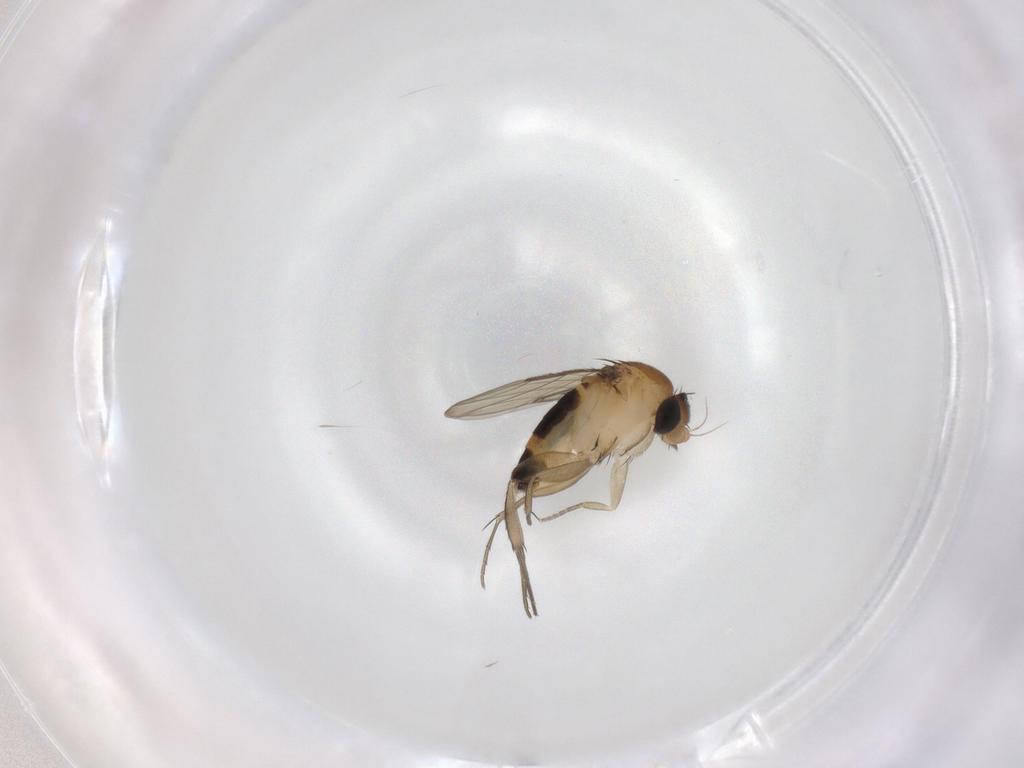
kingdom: Animalia
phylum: Arthropoda
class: Insecta
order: Diptera
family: Phoridae
